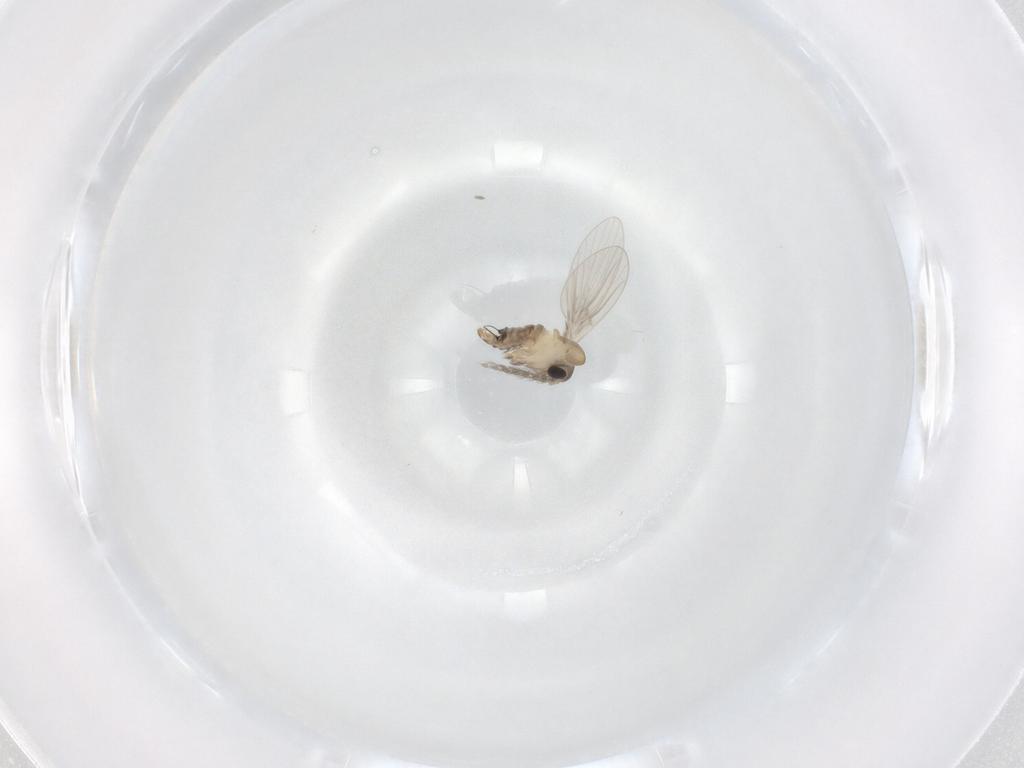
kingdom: Animalia
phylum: Arthropoda
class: Insecta
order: Diptera
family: Psychodidae
